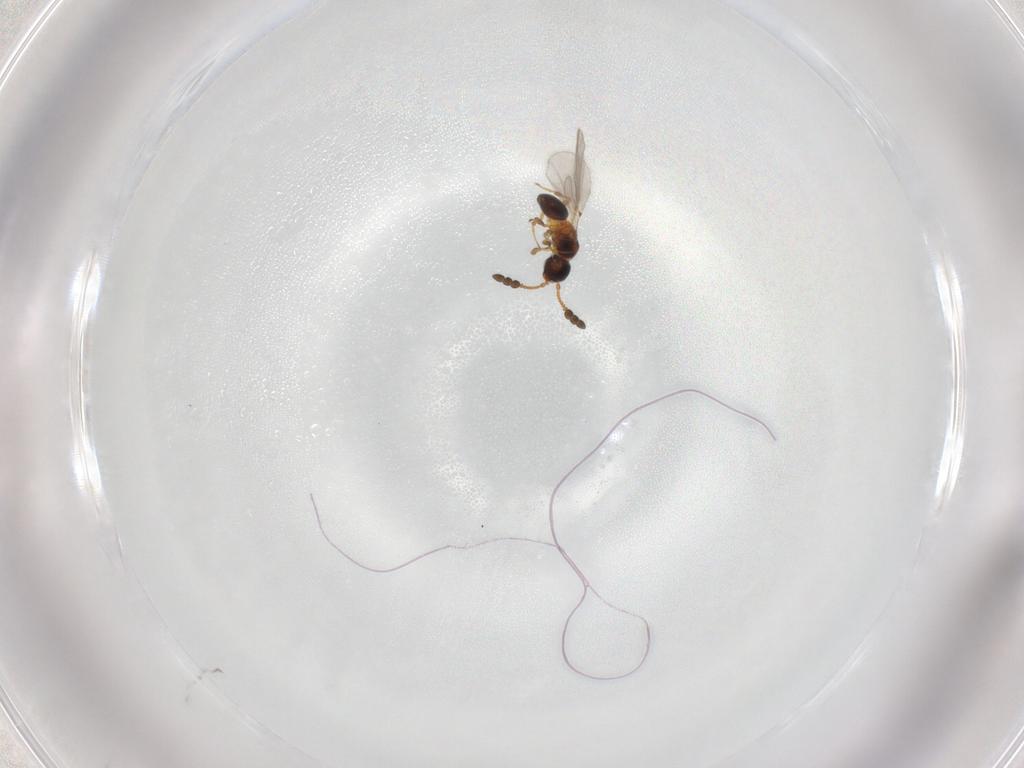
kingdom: Animalia
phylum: Arthropoda
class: Insecta
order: Hymenoptera
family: Diapriidae
